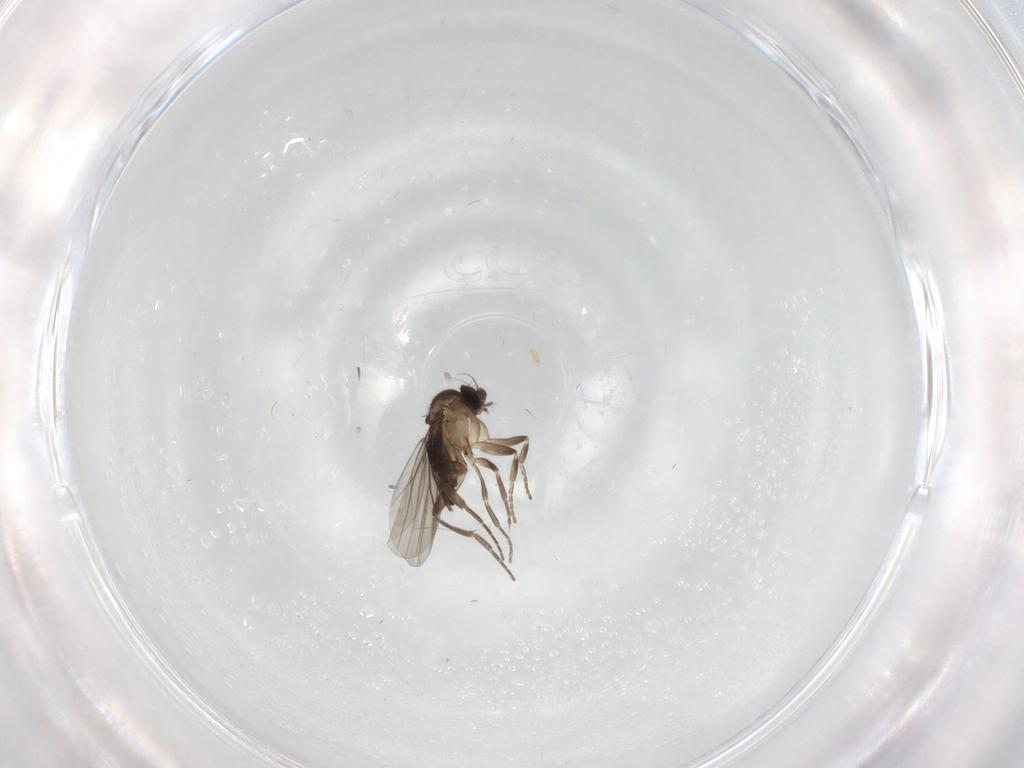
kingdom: Animalia
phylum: Arthropoda
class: Insecta
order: Diptera
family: Phoridae
